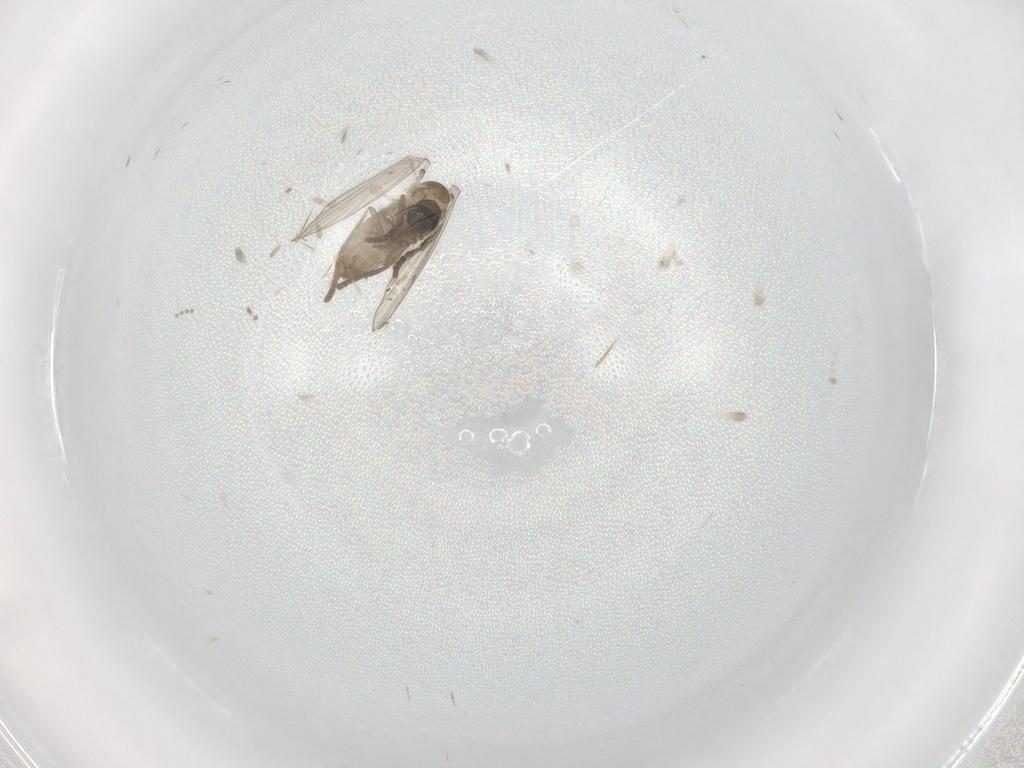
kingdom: Animalia
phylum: Arthropoda
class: Insecta
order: Diptera
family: Psychodidae
